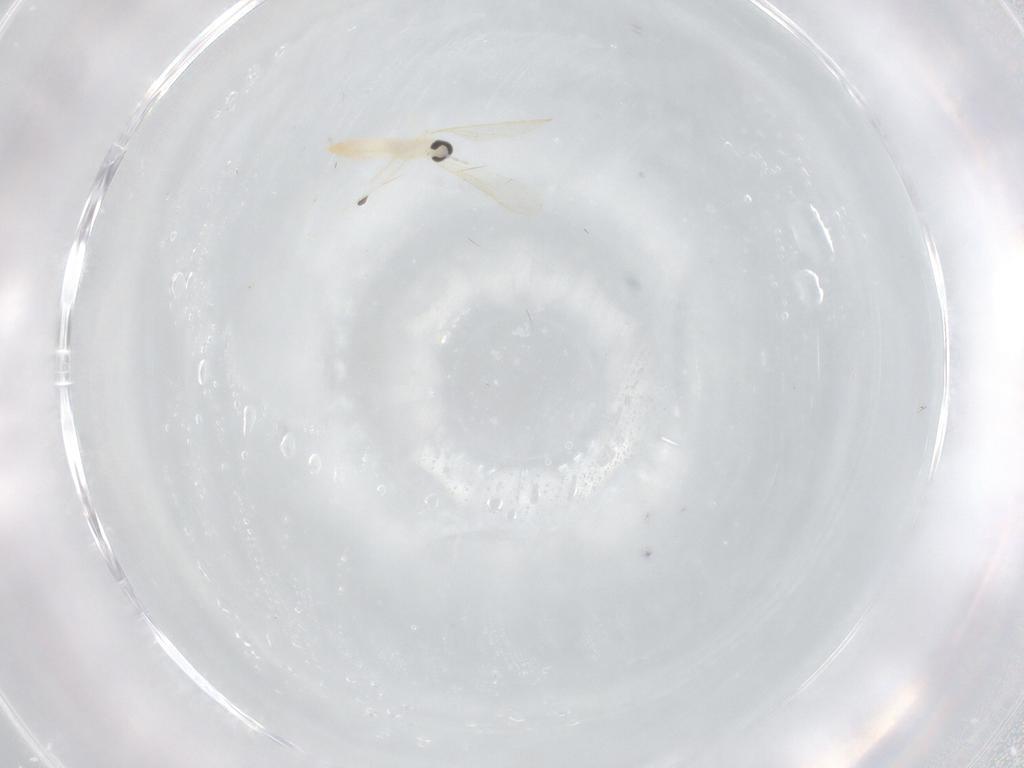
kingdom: Animalia
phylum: Arthropoda
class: Insecta
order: Diptera
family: Cecidomyiidae
